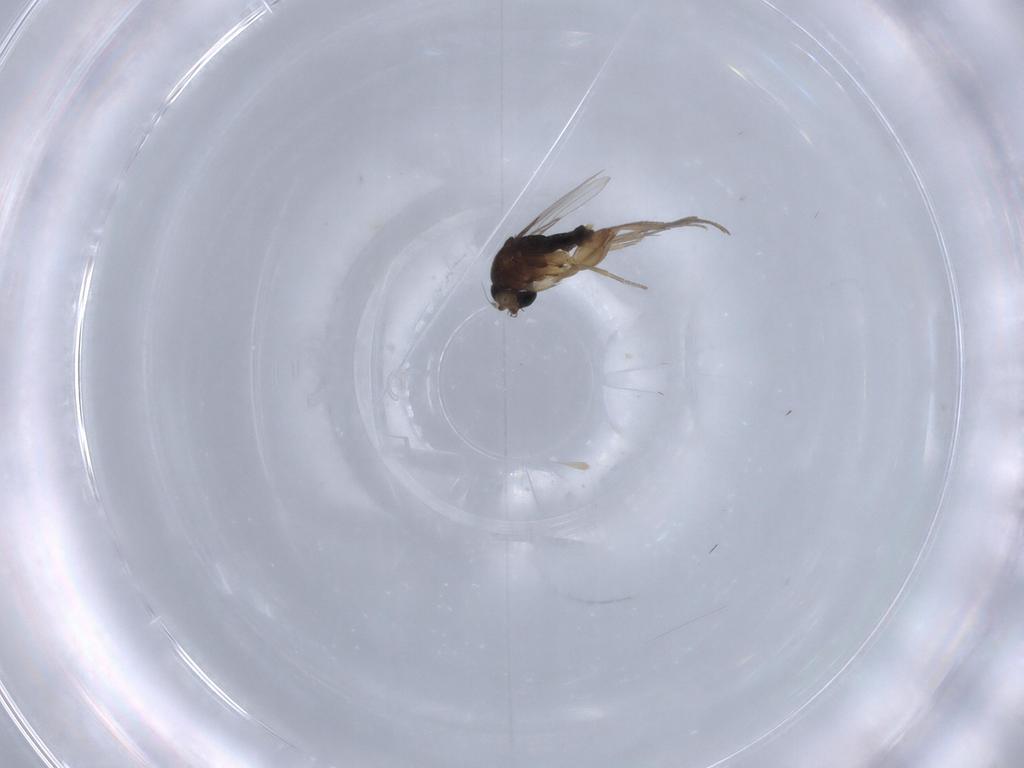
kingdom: Animalia
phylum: Arthropoda
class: Insecta
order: Diptera
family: Phoridae
